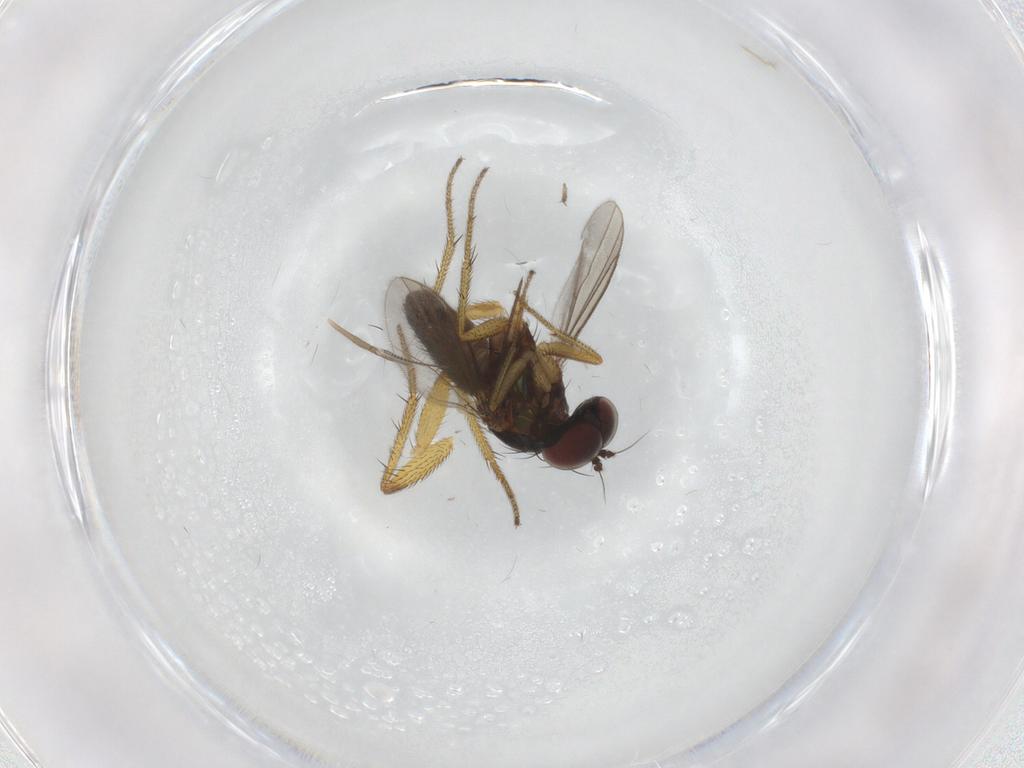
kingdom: Animalia
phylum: Arthropoda
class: Insecta
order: Diptera
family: Chironomidae
